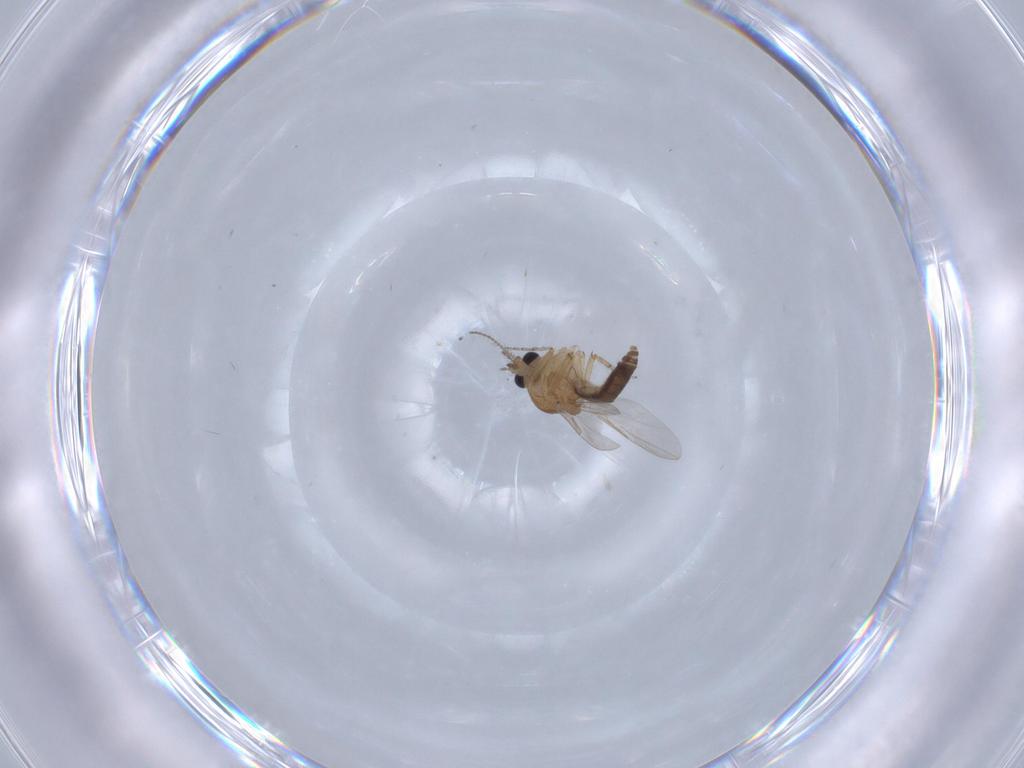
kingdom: Animalia
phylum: Arthropoda
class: Insecta
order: Diptera
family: Ceratopogonidae
